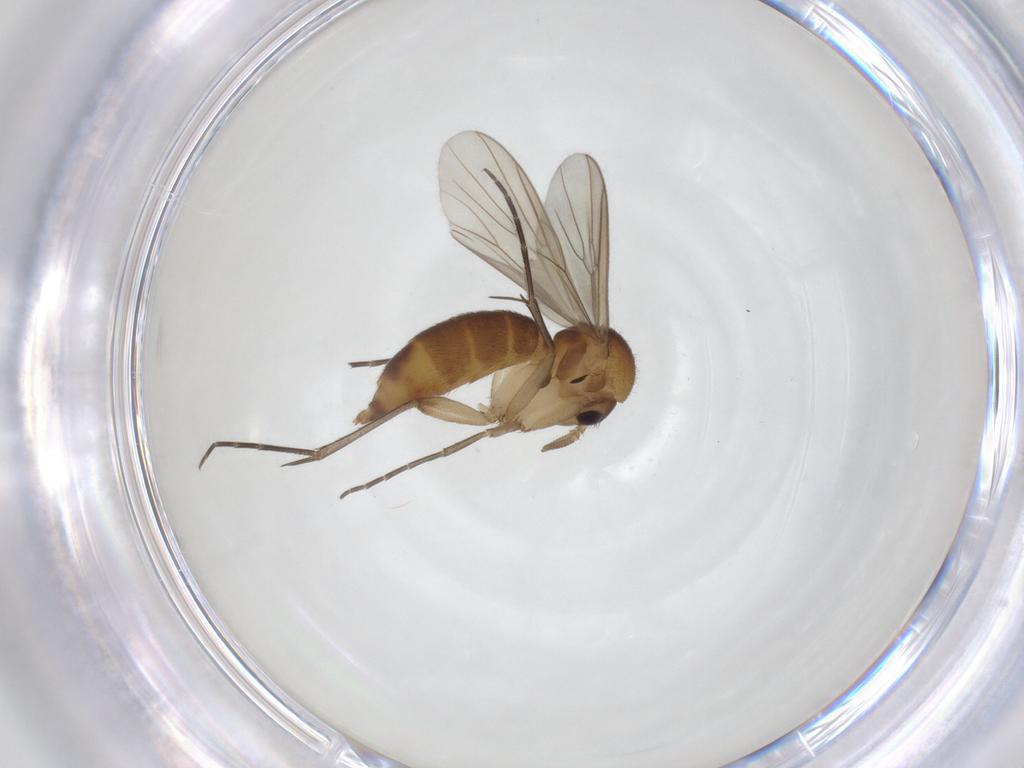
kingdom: Animalia
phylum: Arthropoda
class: Insecta
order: Diptera
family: Mycetophilidae
